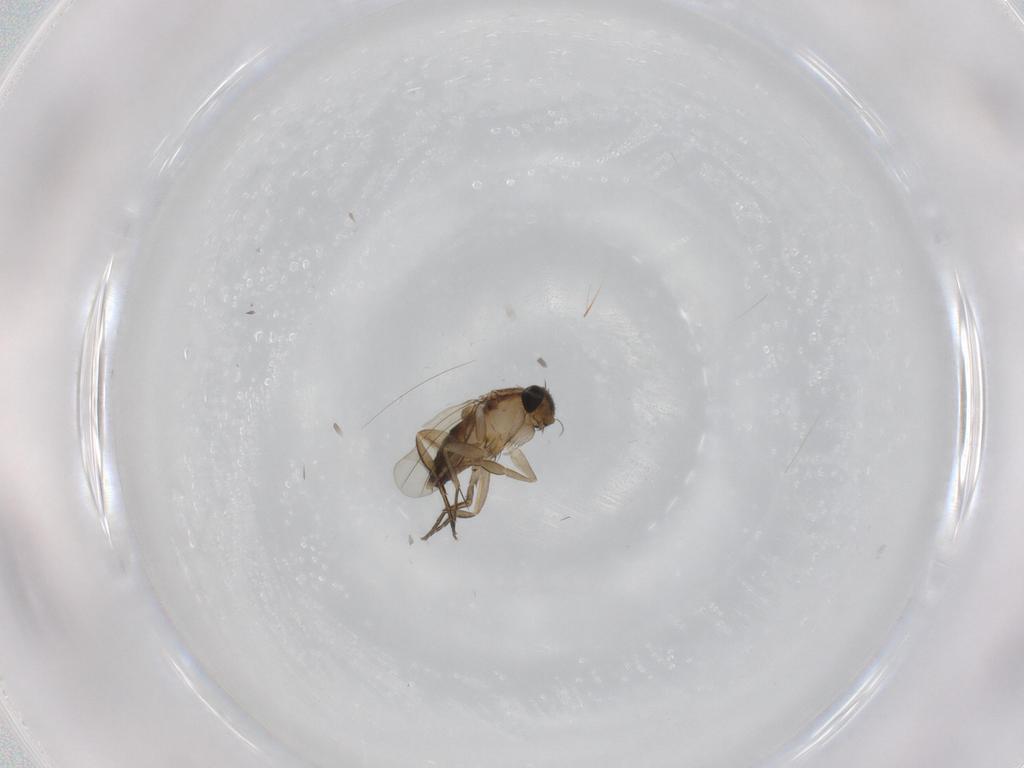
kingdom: Animalia
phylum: Arthropoda
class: Insecta
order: Diptera
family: Phoridae
